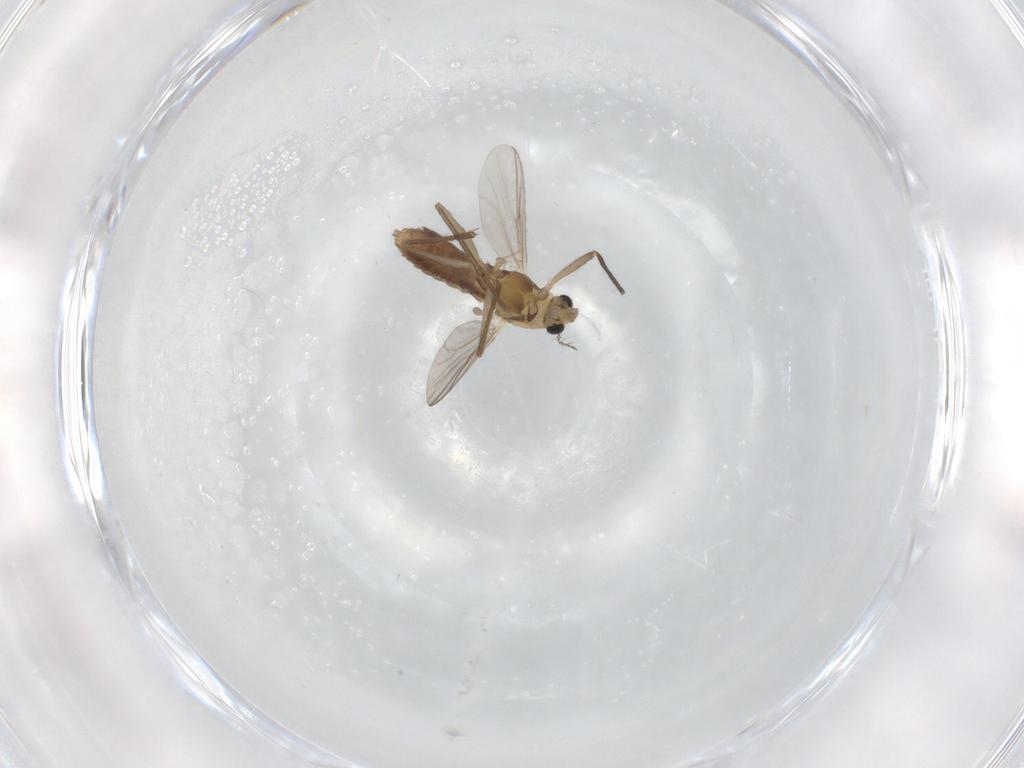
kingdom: Animalia
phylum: Arthropoda
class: Insecta
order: Diptera
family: Chironomidae
